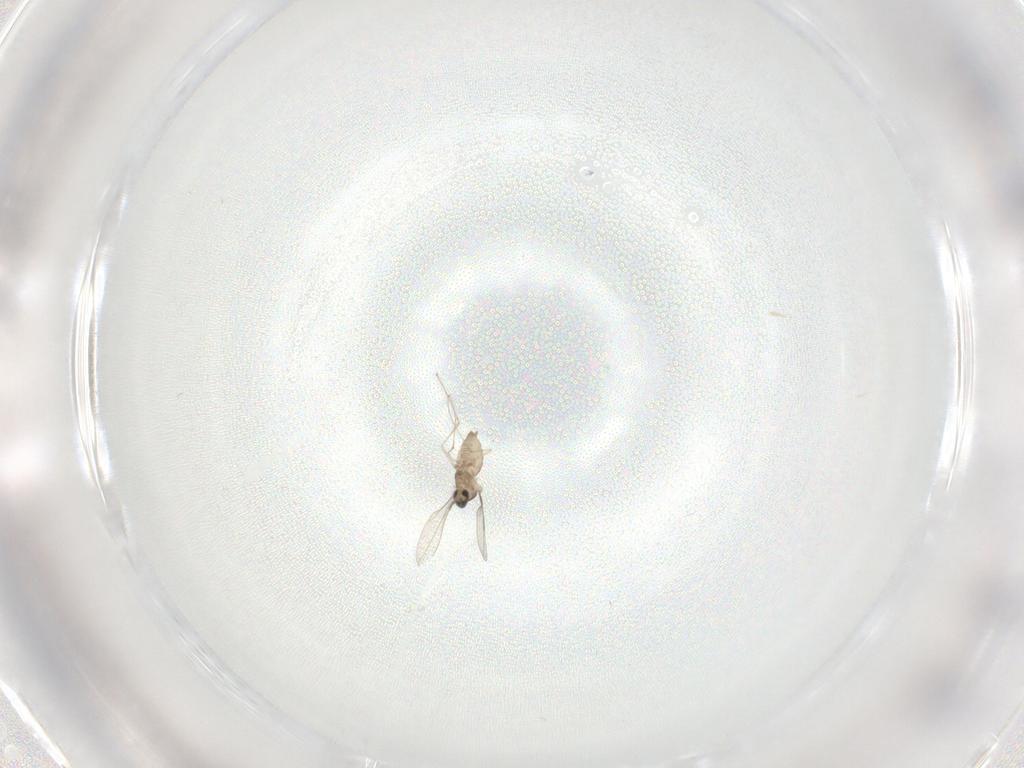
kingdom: Animalia
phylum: Arthropoda
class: Insecta
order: Diptera
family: Cecidomyiidae
